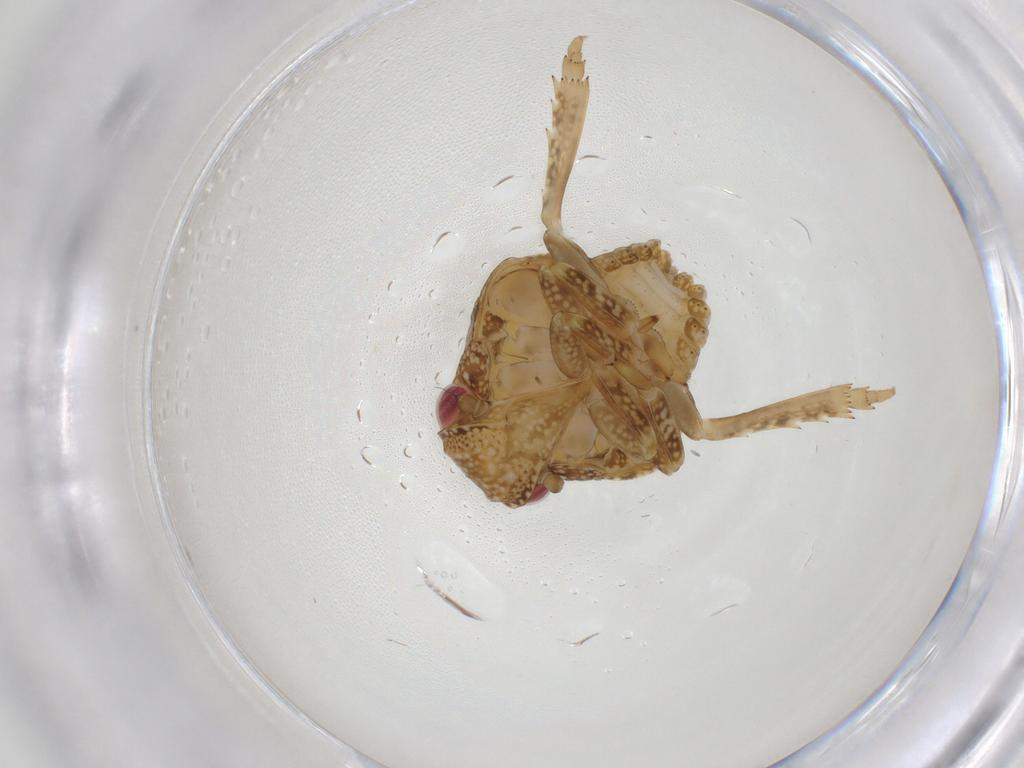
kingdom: Animalia
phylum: Arthropoda
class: Insecta
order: Hemiptera
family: Acanaloniidae
